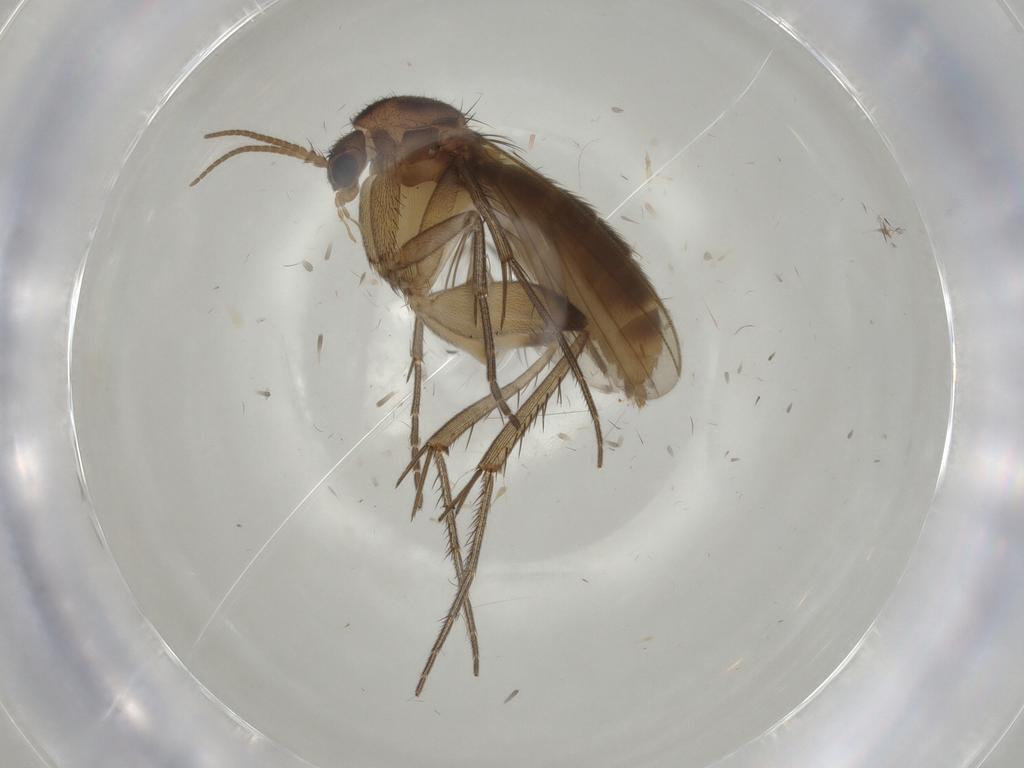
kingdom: Animalia
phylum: Arthropoda
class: Insecta
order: Diptera
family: Mycetophilidae
